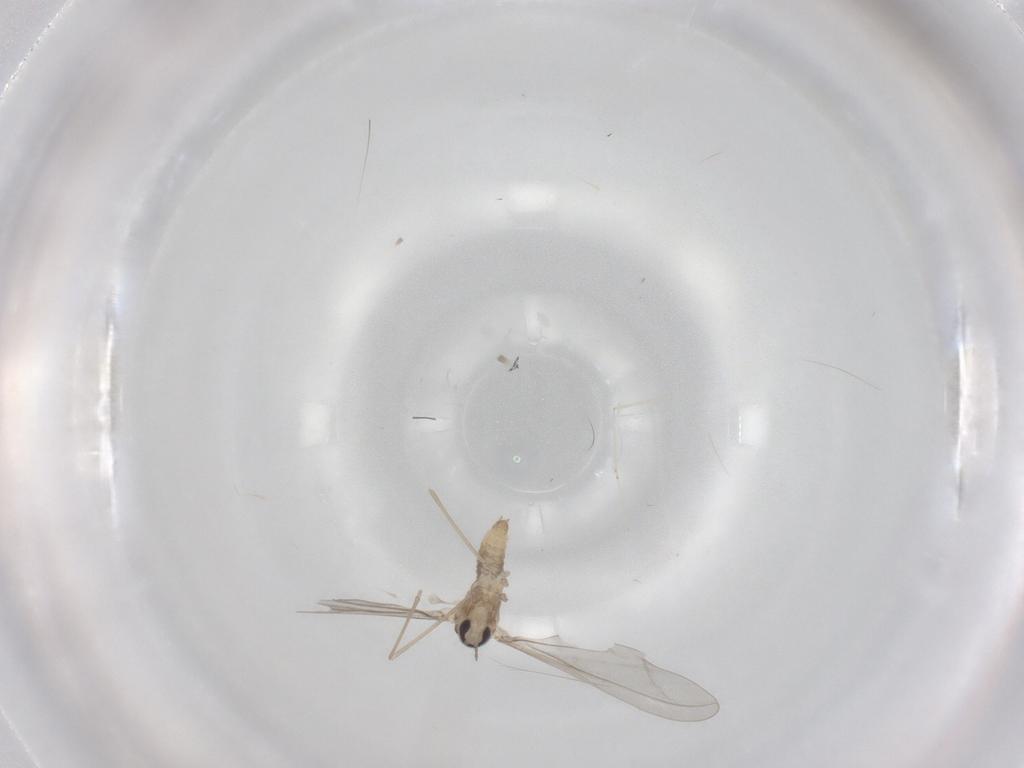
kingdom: Animalia
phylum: Arthropoda
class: Insecta
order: Diptera
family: Cecidomyiidae
